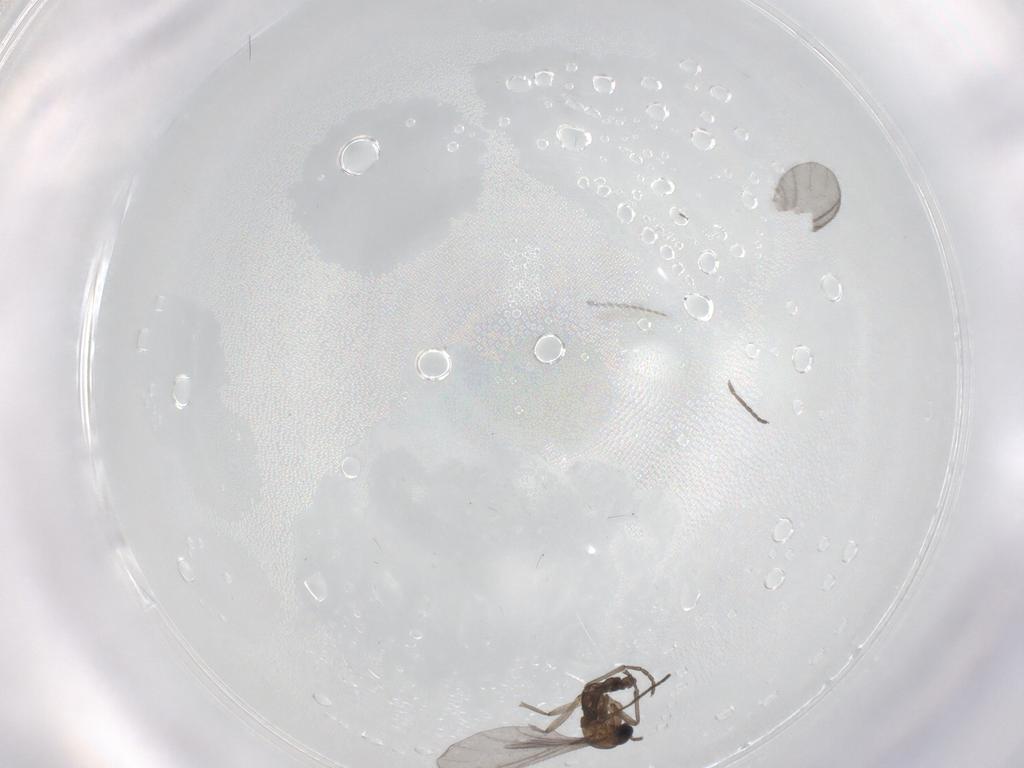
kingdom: Animalia
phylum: Arthropoda
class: Insecta
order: Diptera
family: Sciaridae
